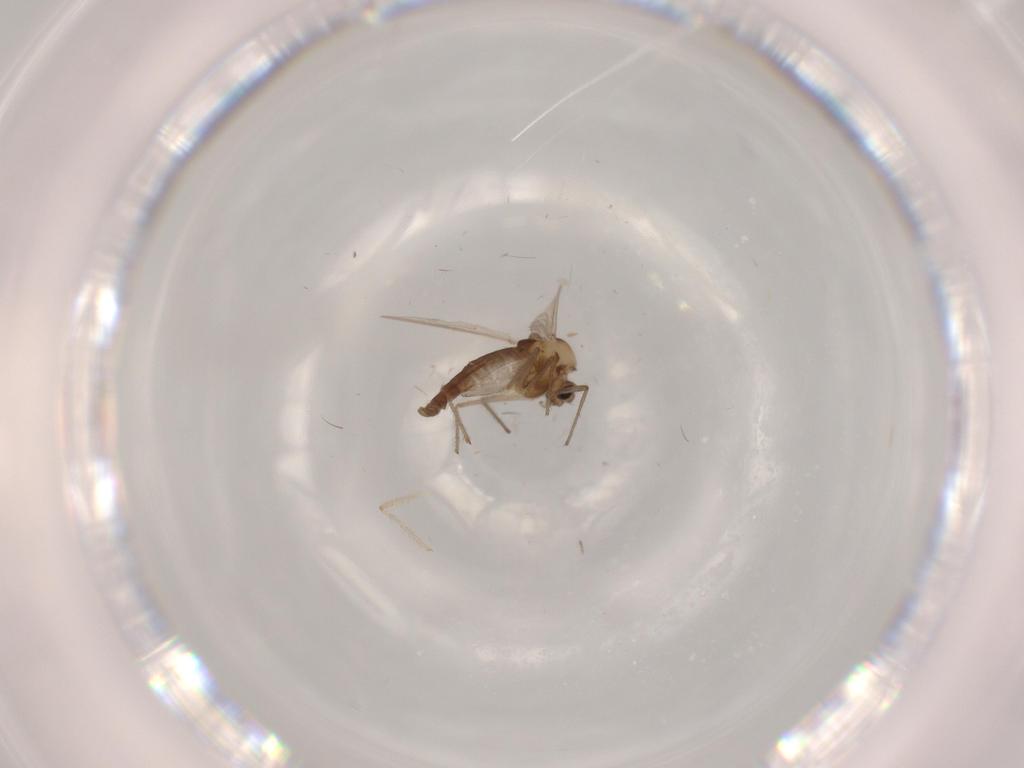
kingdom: Animalia
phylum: Arthropoda
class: Insecta
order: Diptera
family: Chironomidae
